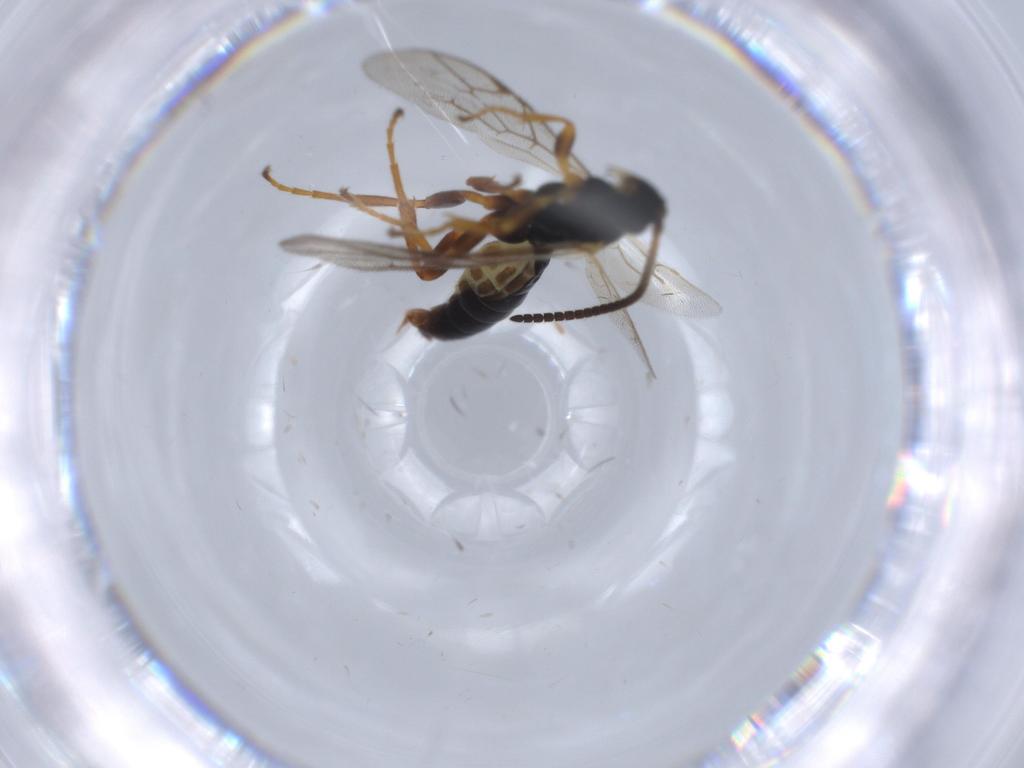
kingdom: Animalia
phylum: Arthropoda
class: Insecta
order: Hymenoptera
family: Ichneumonidae
